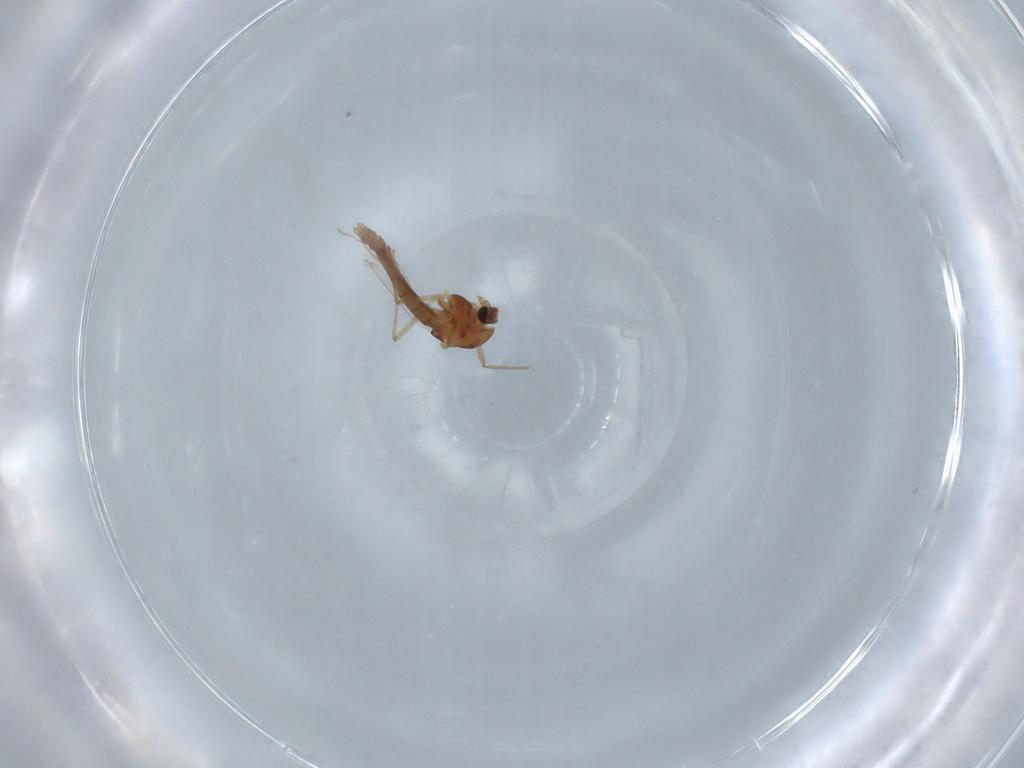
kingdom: Animalia
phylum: Arthropoda
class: Insecta
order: Diptera
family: Chironomidae
